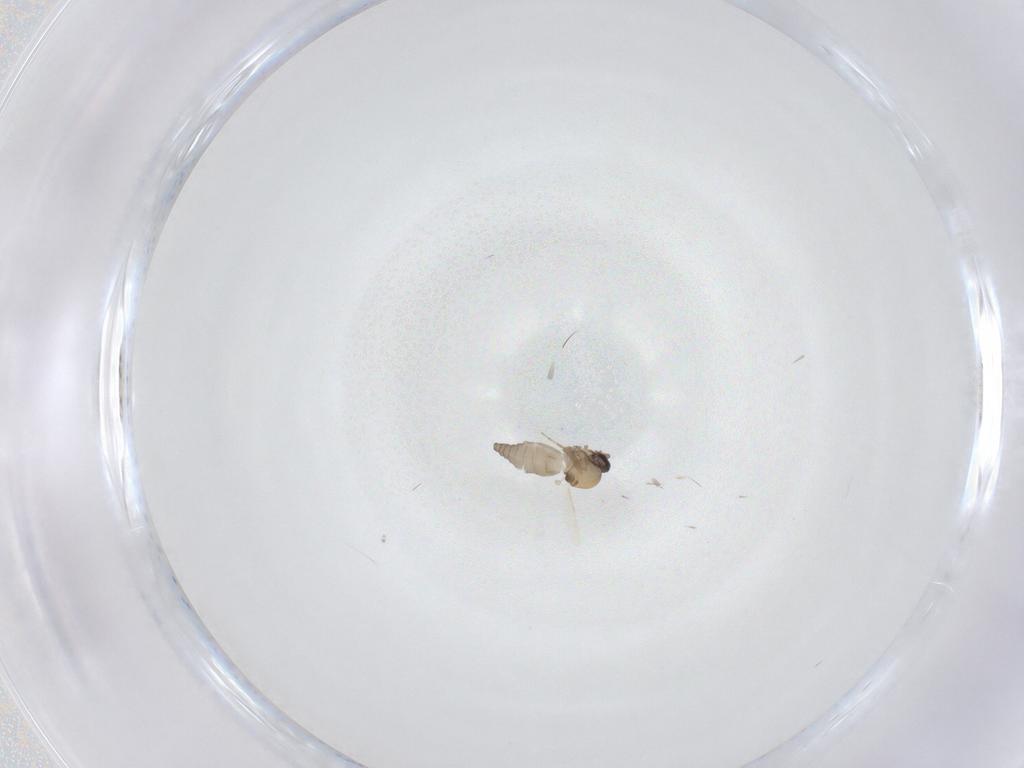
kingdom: Animalia
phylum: Arthropoda
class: Insecta
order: Diptera
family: Ceratopogonidae
